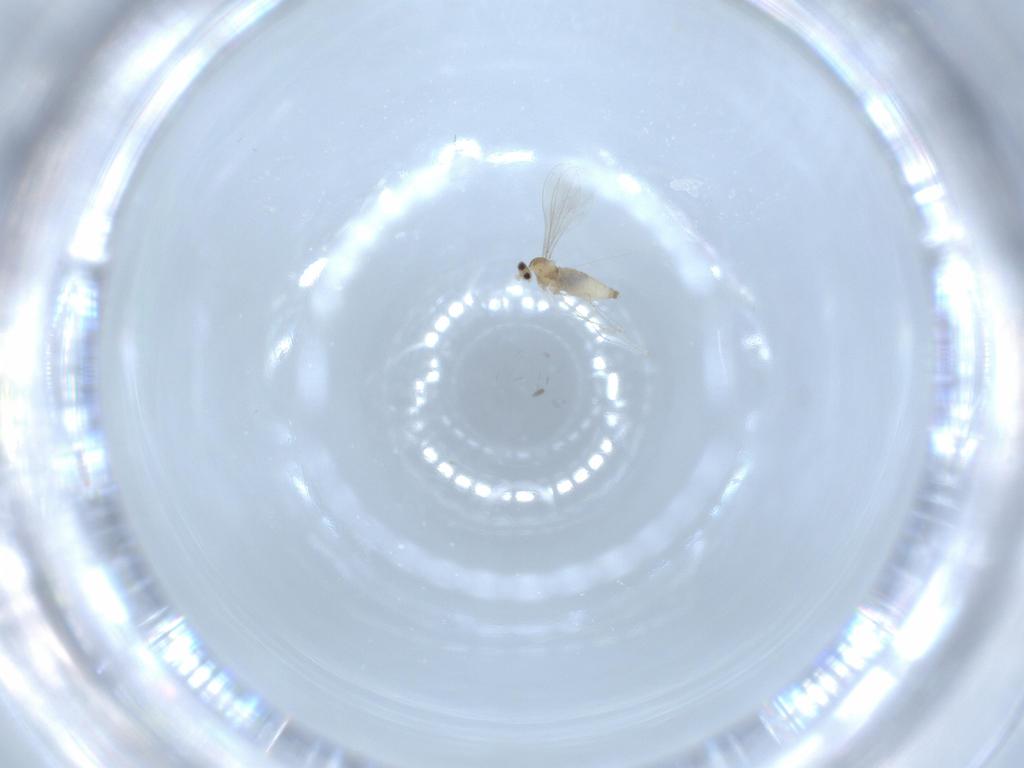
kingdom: Animalia
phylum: Arthropoda
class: Insecta
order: Diptera
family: Cecidomyiidae
